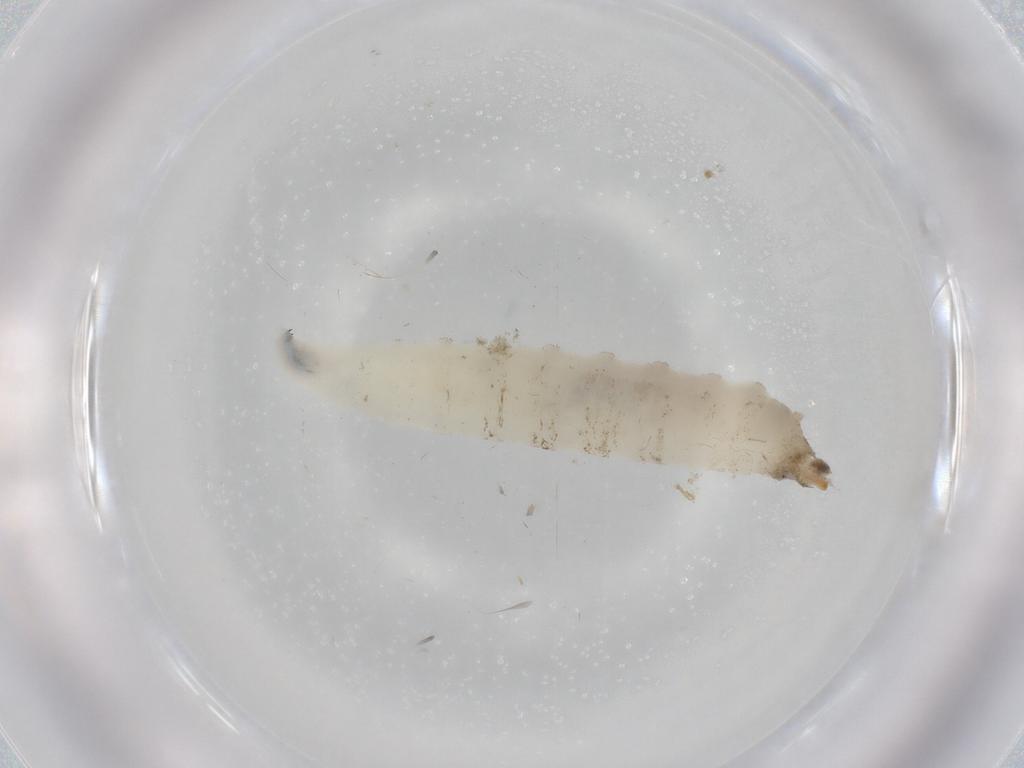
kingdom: Animalia
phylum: Arthropoda
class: Insecta
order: Diptera
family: Drosophilidae
